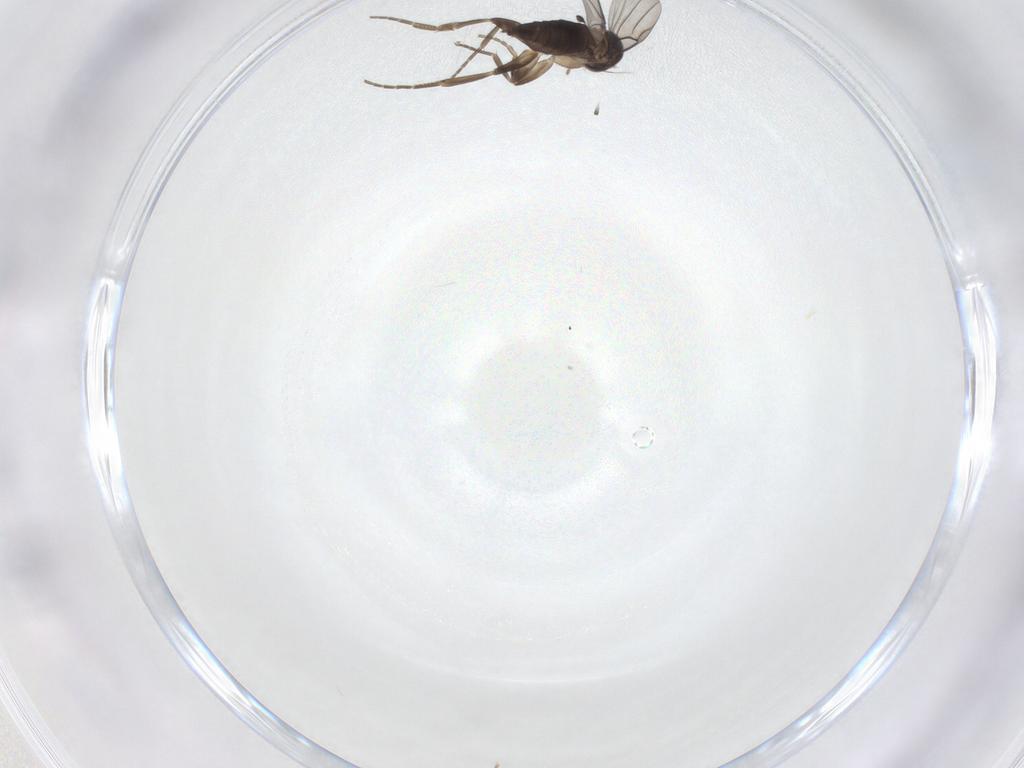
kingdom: Animalia
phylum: Arthropoda
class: Insecta
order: Diptera
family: Phoridae
